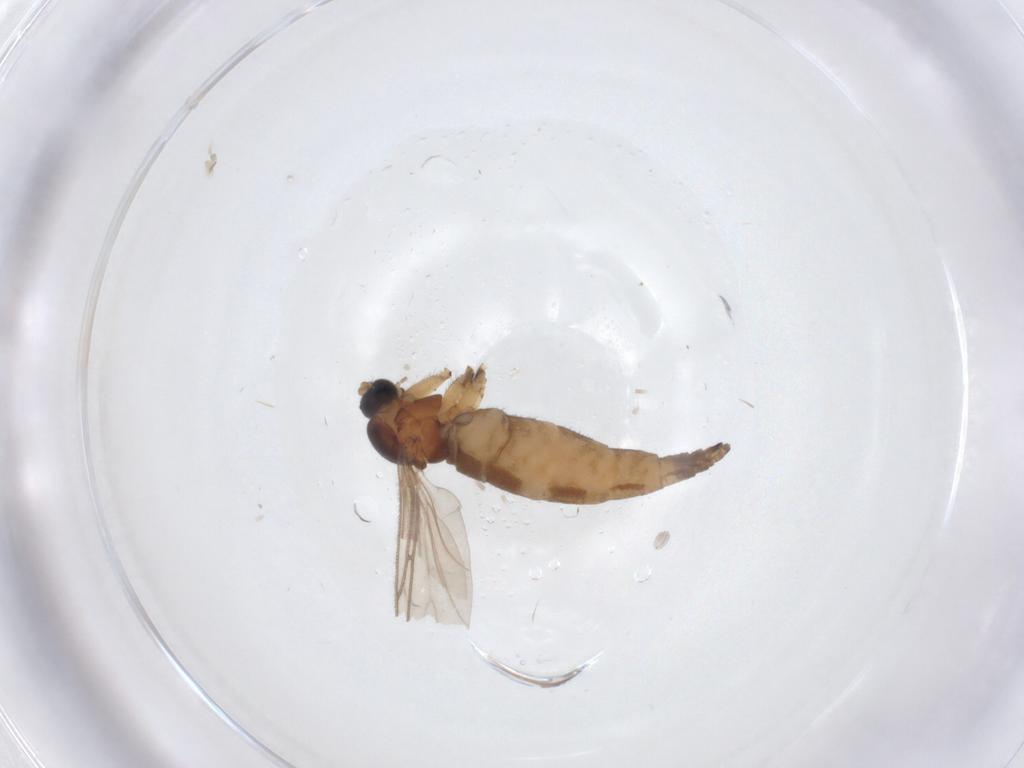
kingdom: Animalia
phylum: Arthropoda
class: Insecta
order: Diptera
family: Sciaridae
